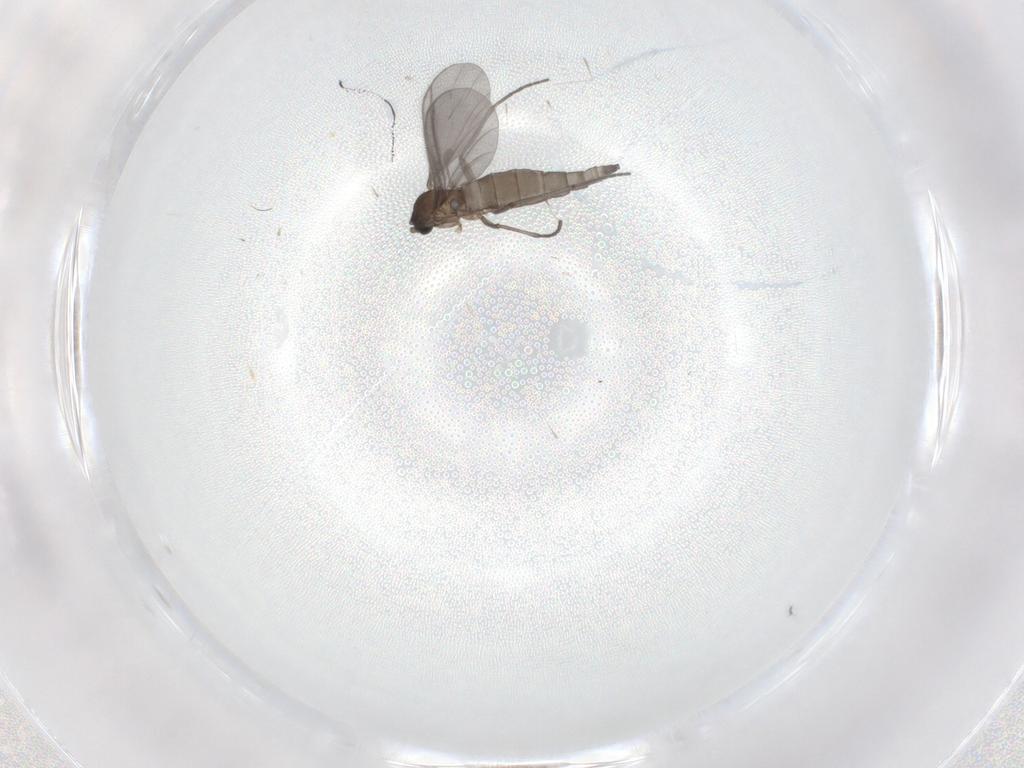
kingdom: Animalia
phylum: Arthropoda
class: Insecta
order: Diptera
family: Sciaridae
